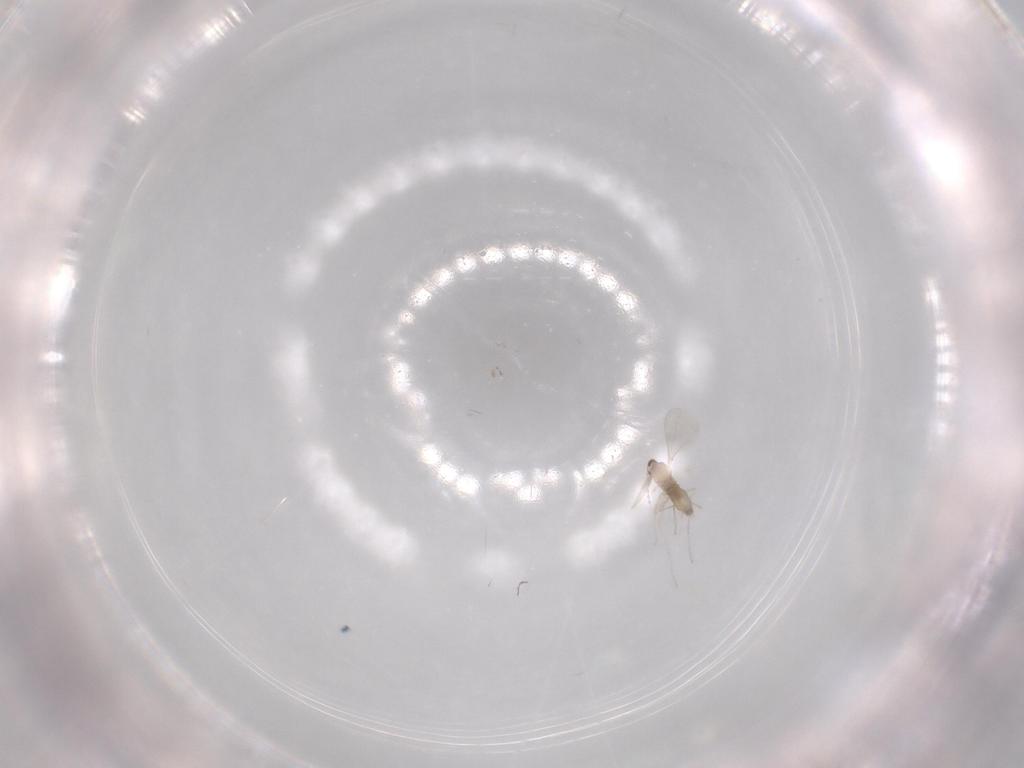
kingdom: Animalia
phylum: Arthropoda
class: Insecta
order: Diptera
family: Cecidomyiidae
